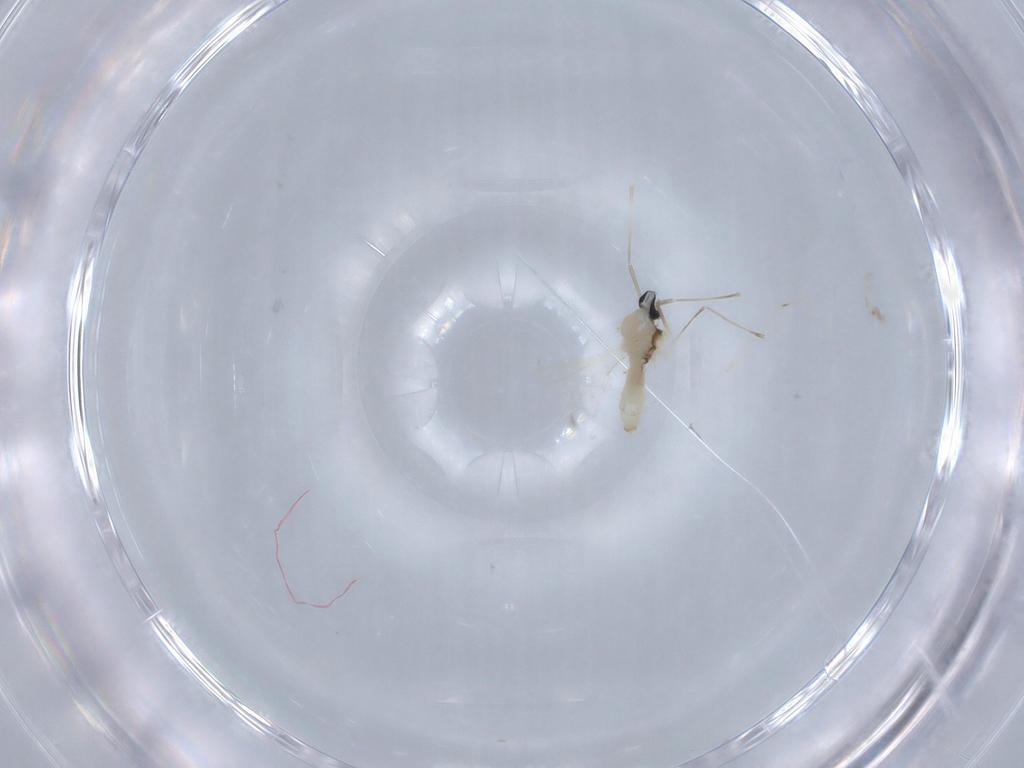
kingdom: Animalia
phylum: Arthropoda
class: Insecta
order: Diptera
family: Cecidomyiidae
